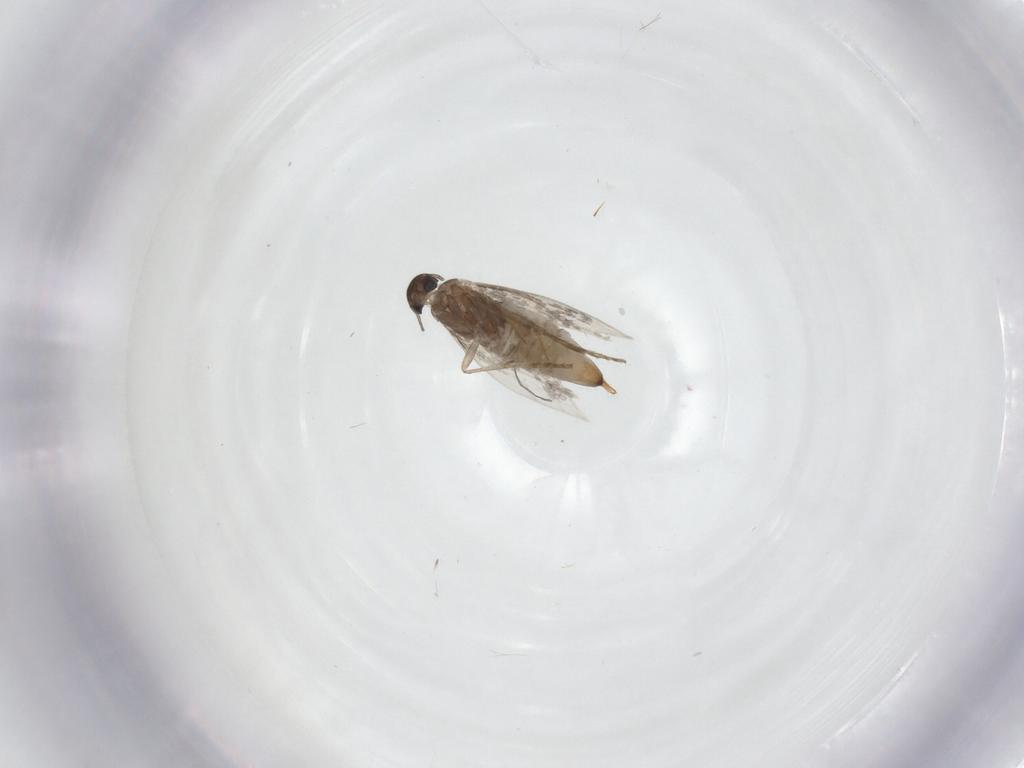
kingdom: Animalia
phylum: Arthropoda
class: Insecta
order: Lepidoptera
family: Heliozelidae
